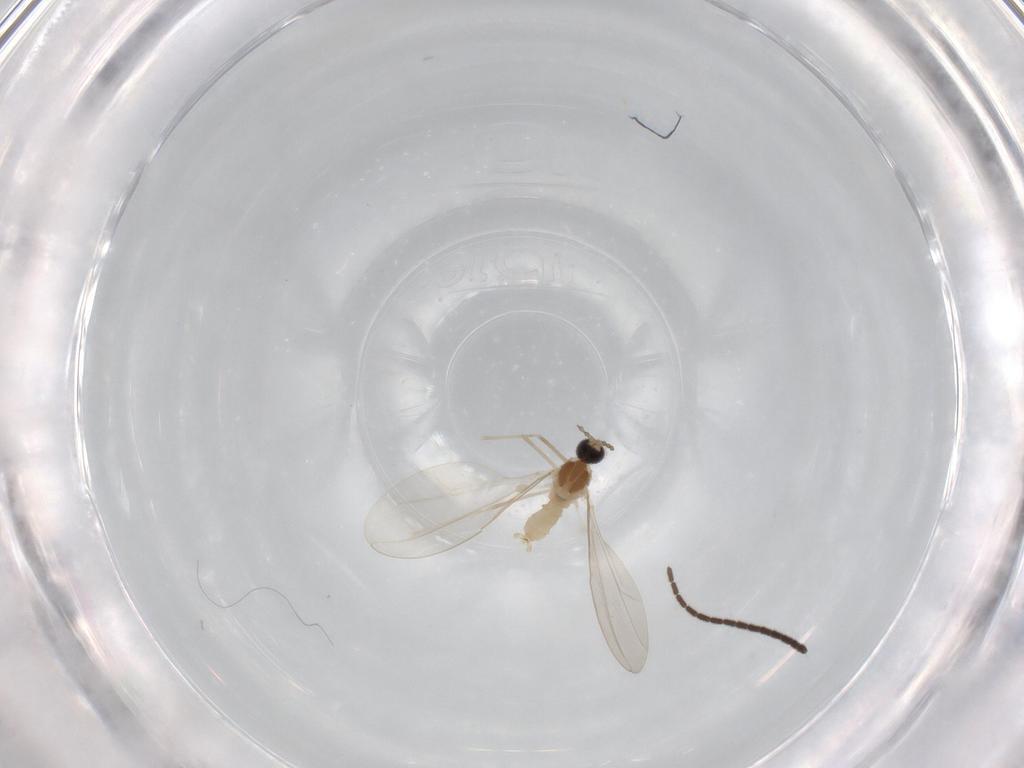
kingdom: Animalia
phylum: Arthropoda
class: Insecta
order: Diptera
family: Cecidomyiidae
